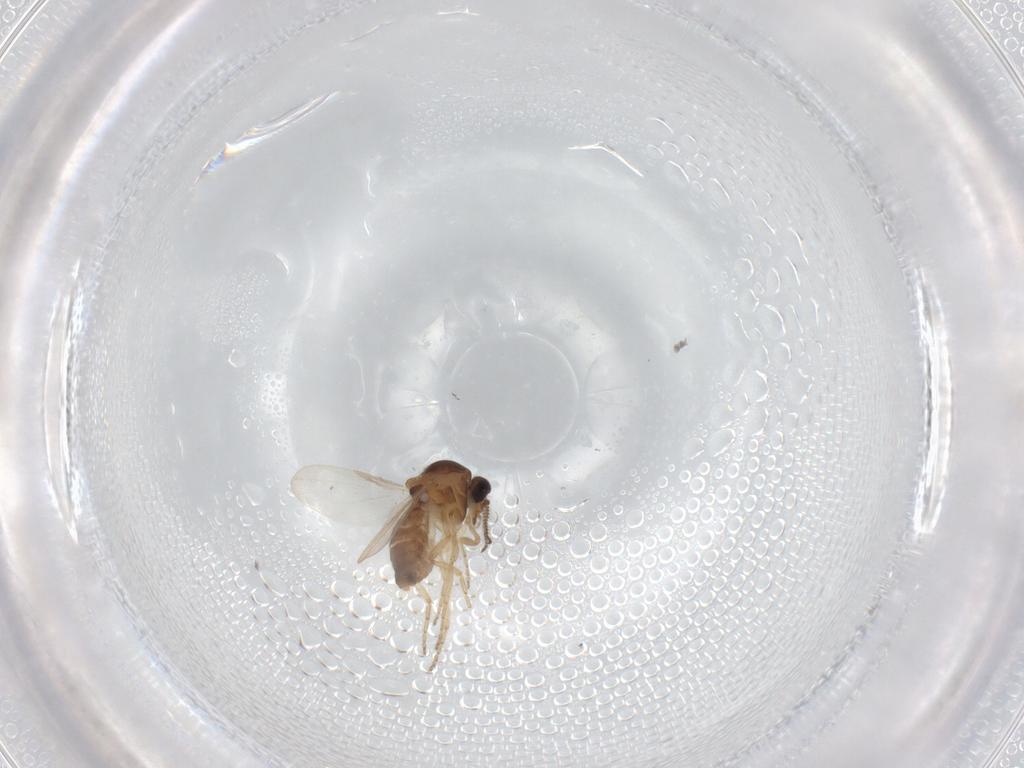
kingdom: Animalia
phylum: Arthropoda
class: Insecta
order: Diptera
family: Ceratopogonidae
